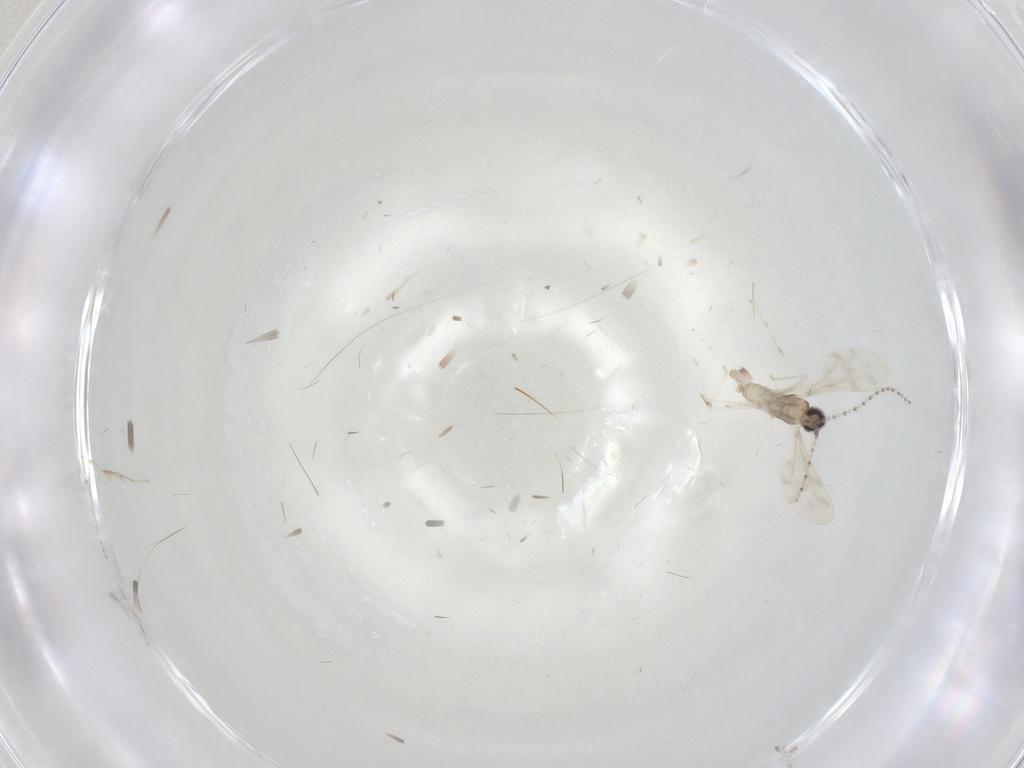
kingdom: Animalia
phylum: Arthropoda
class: Insecta
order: Diptera
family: Cecidomyiidae
